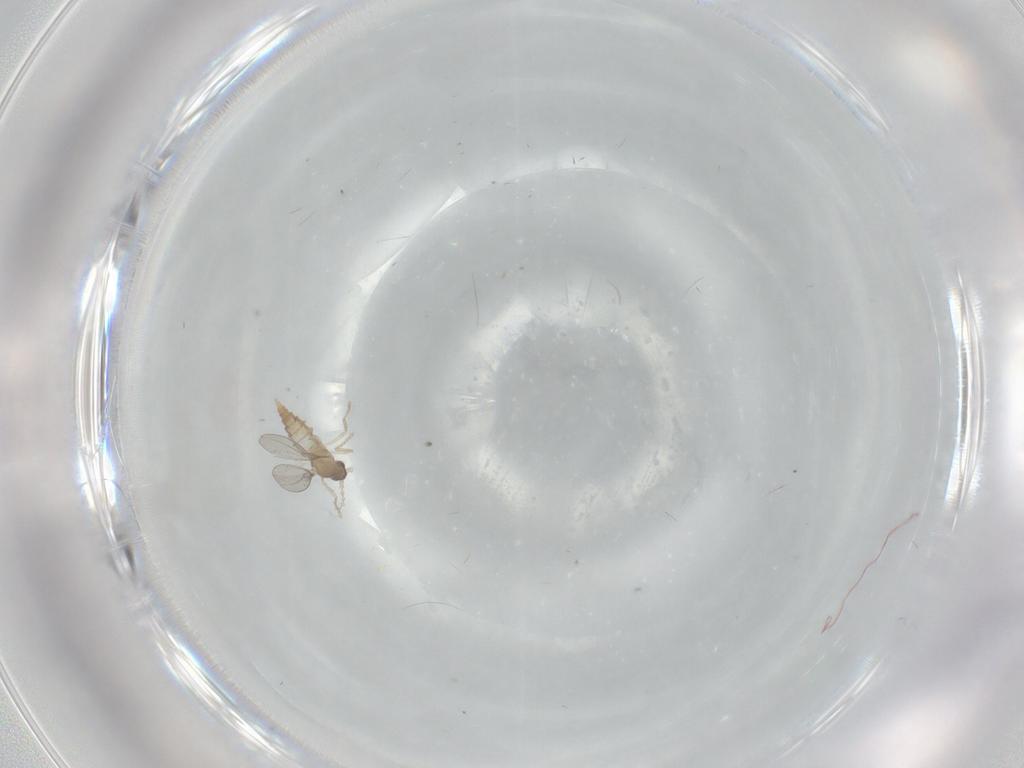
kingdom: Animalia
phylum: Arthropoda
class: Insecta
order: Diptera
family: Cecidomyiidae
